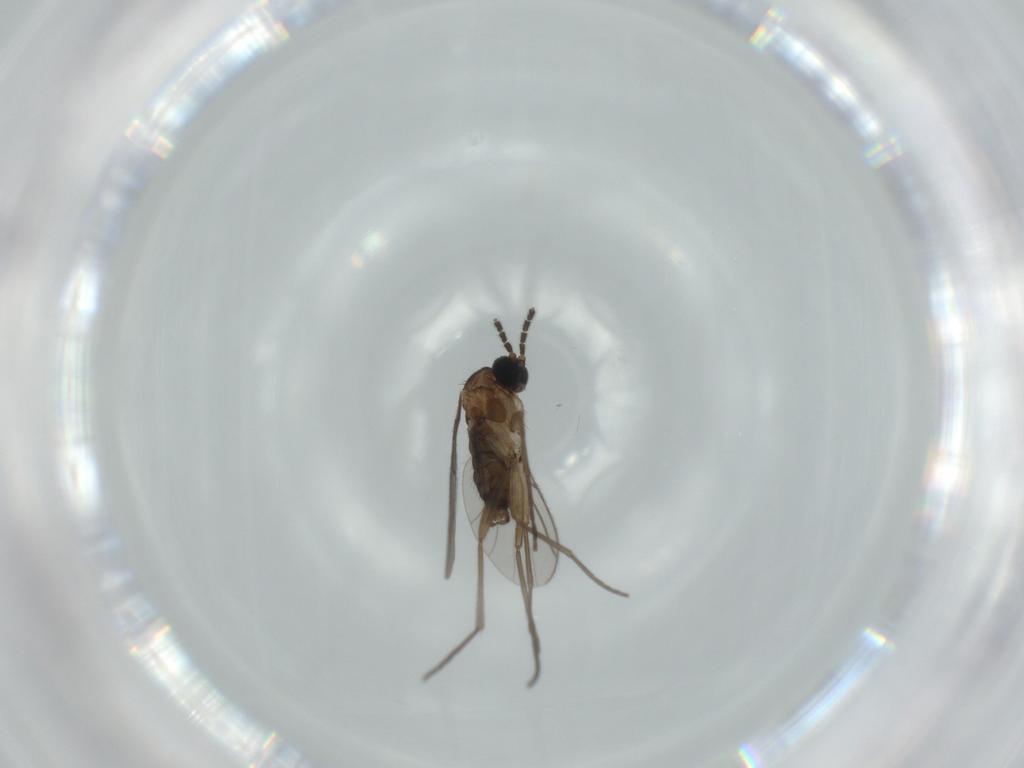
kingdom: Animalia
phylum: Arthropoda
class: Insecta
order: Diptera
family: Sciaridae
